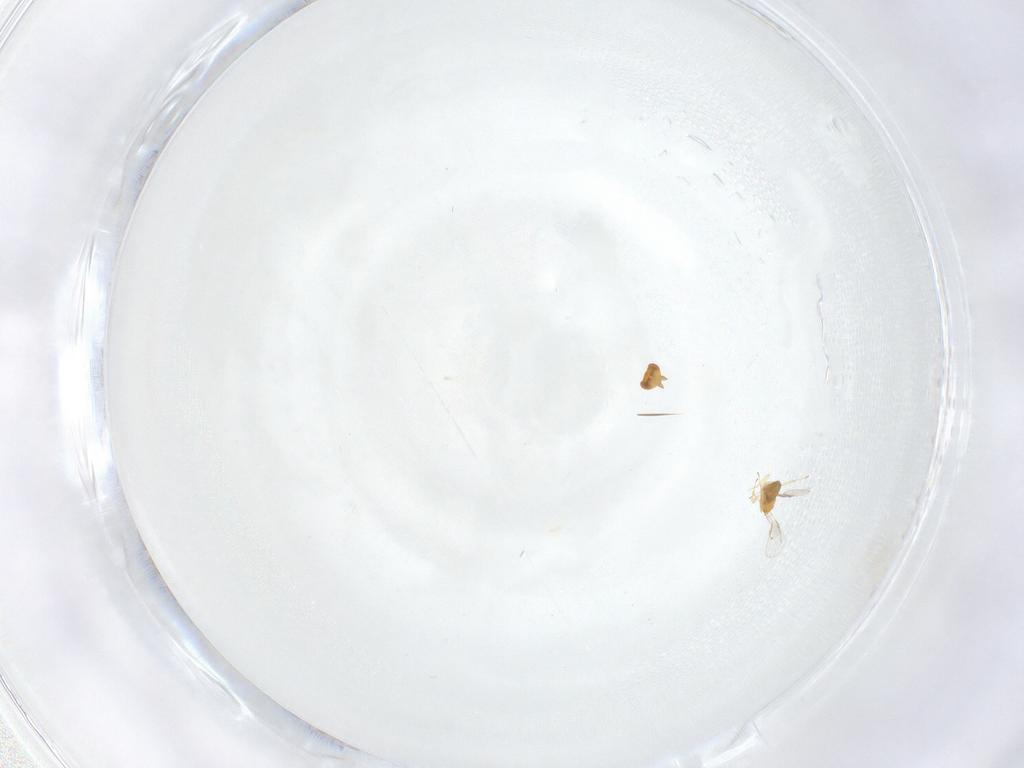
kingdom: Animalia
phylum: Arthropoda
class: Insecta
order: Hymenoptera
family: Trichogrammatidae
